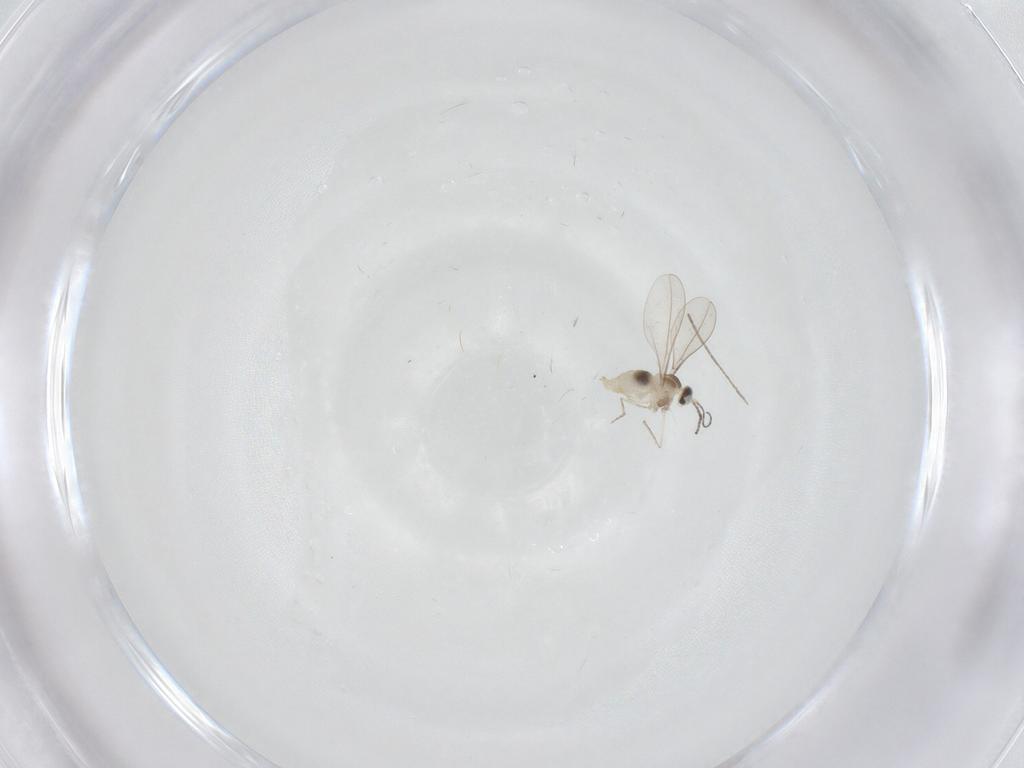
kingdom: Animalia
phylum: Arthropoda
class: Insecta
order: Diptera
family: Cecidomyiidae
